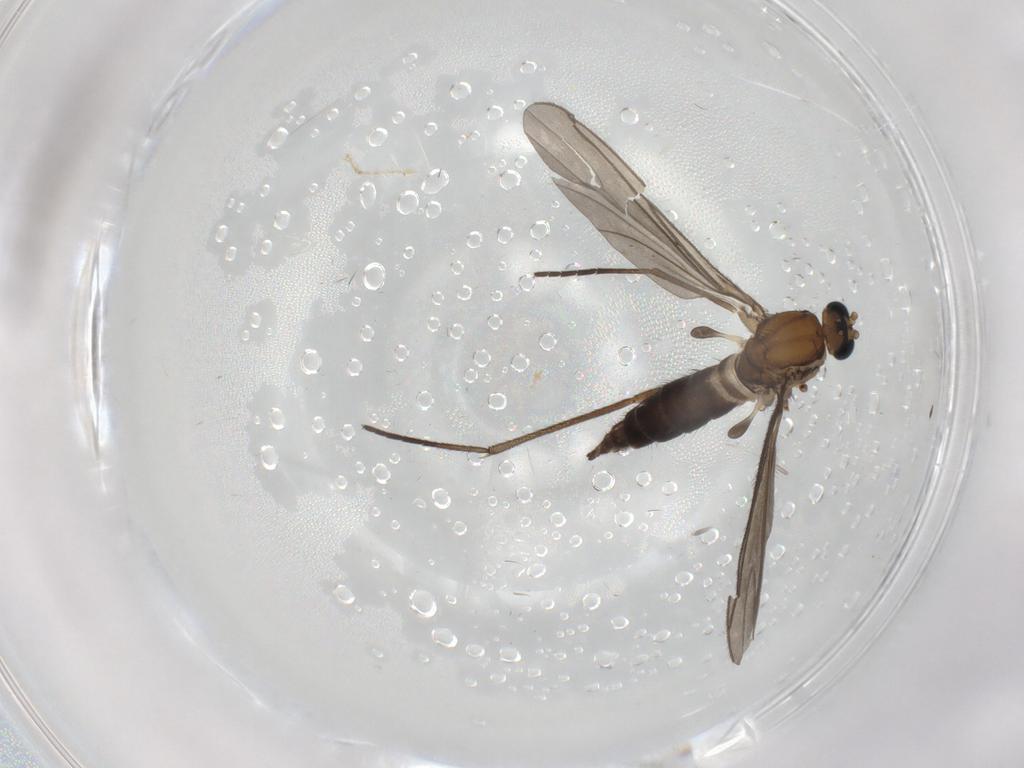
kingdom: Animalia
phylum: Arthropoda
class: Insecta
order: Diptera
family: Sciaridae
